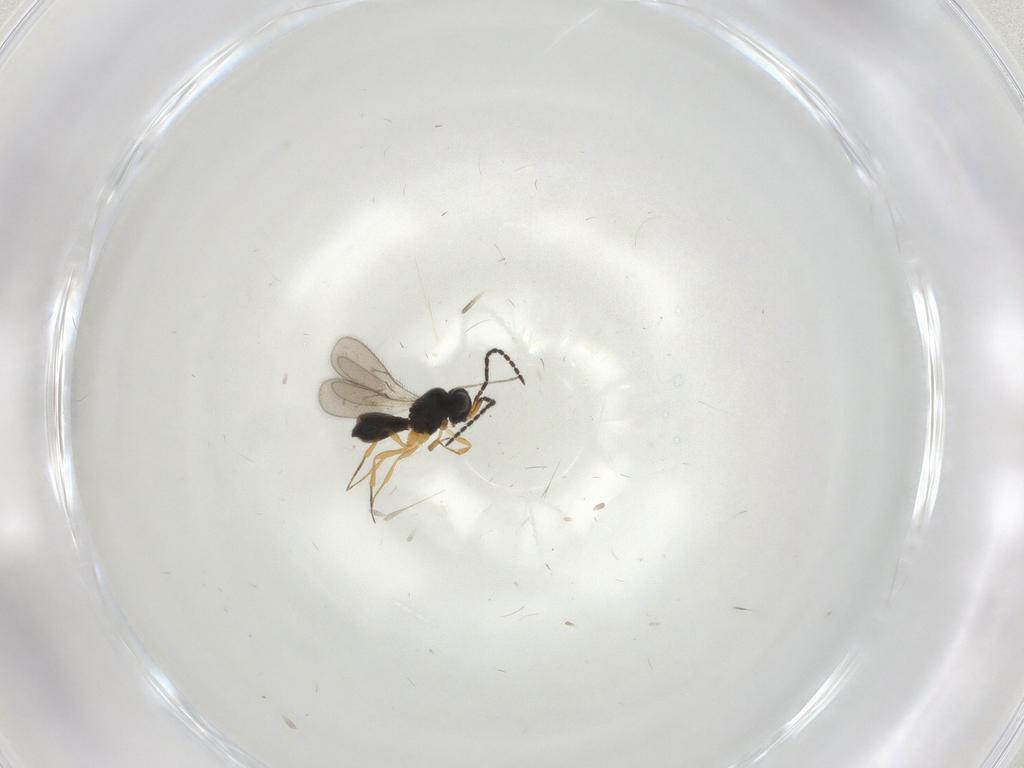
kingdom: Animalia
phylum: Arthropoda
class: Insecta
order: Hymenoptera
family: Scelionidae
